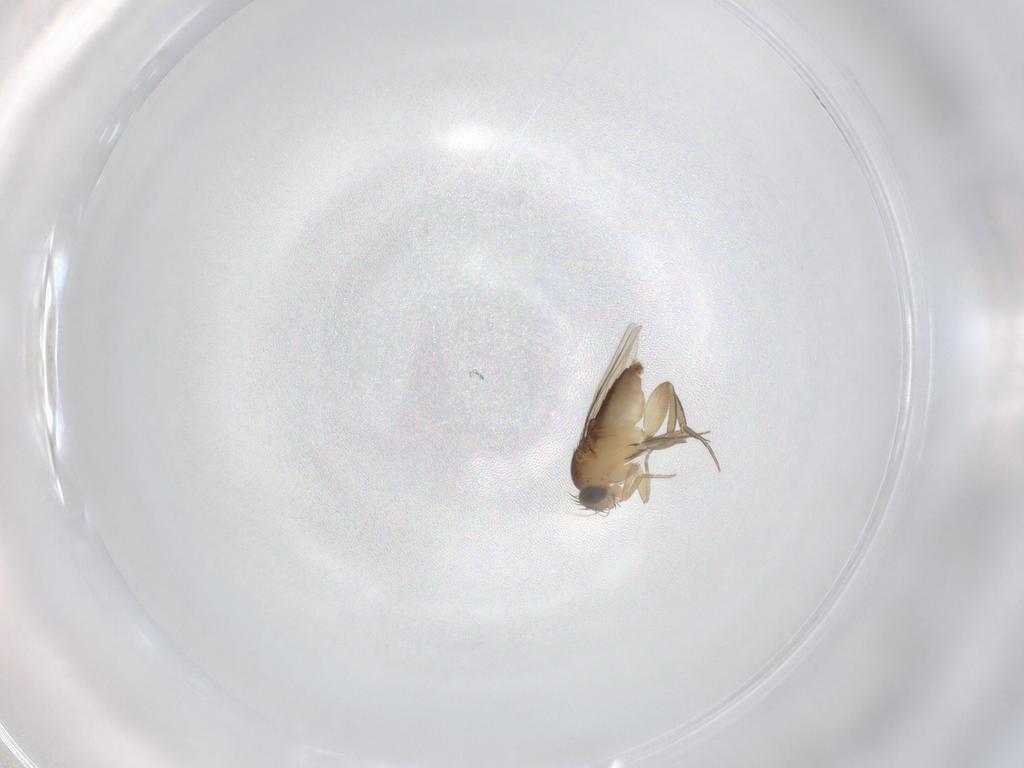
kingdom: Animalia
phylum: Arthropoda
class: Insecta
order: Diptera
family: Phoridae
